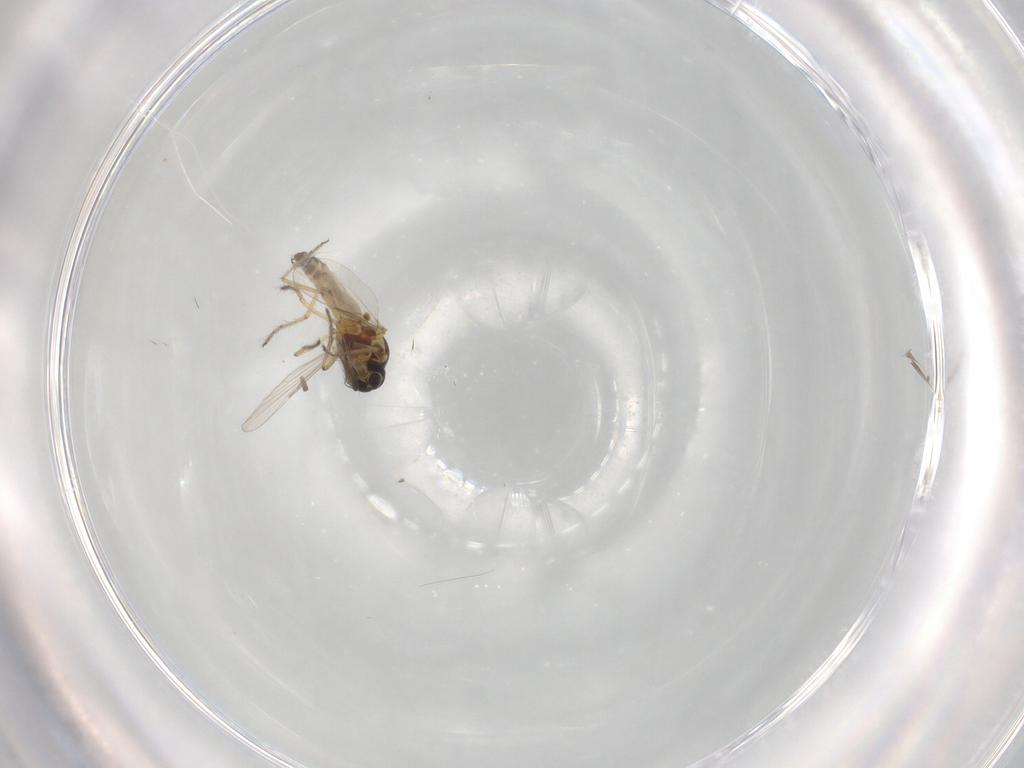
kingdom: Animalia
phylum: Arthropoda
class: Insecta
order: Diptera
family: Ceratopogonidae
